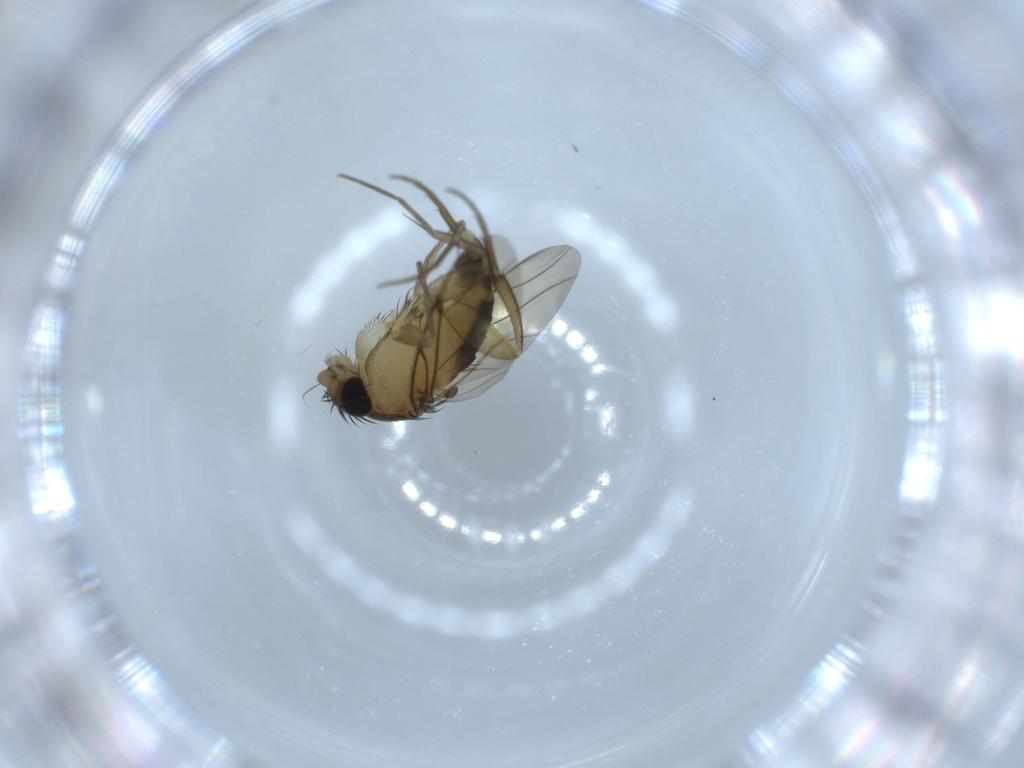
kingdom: Animalia
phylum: Arthropoda
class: Insecta
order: Diptera
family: Phoridae
